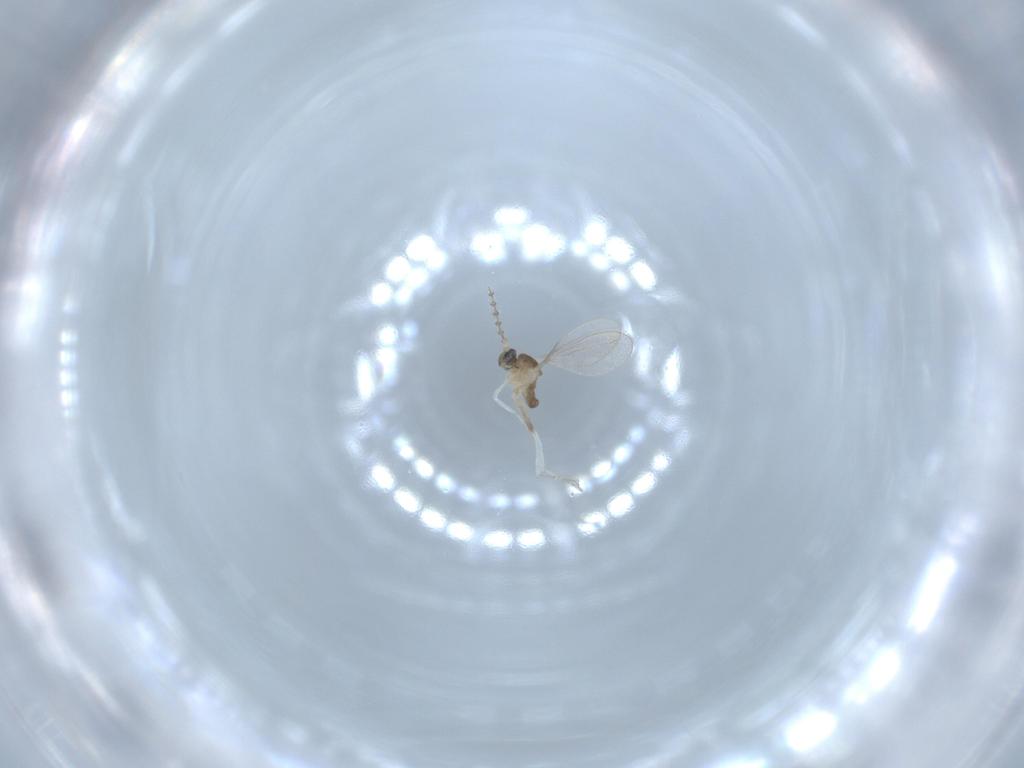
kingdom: Animalia
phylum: Arthropoda
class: Insecta
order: Diptera
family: Cecidomyiidae
